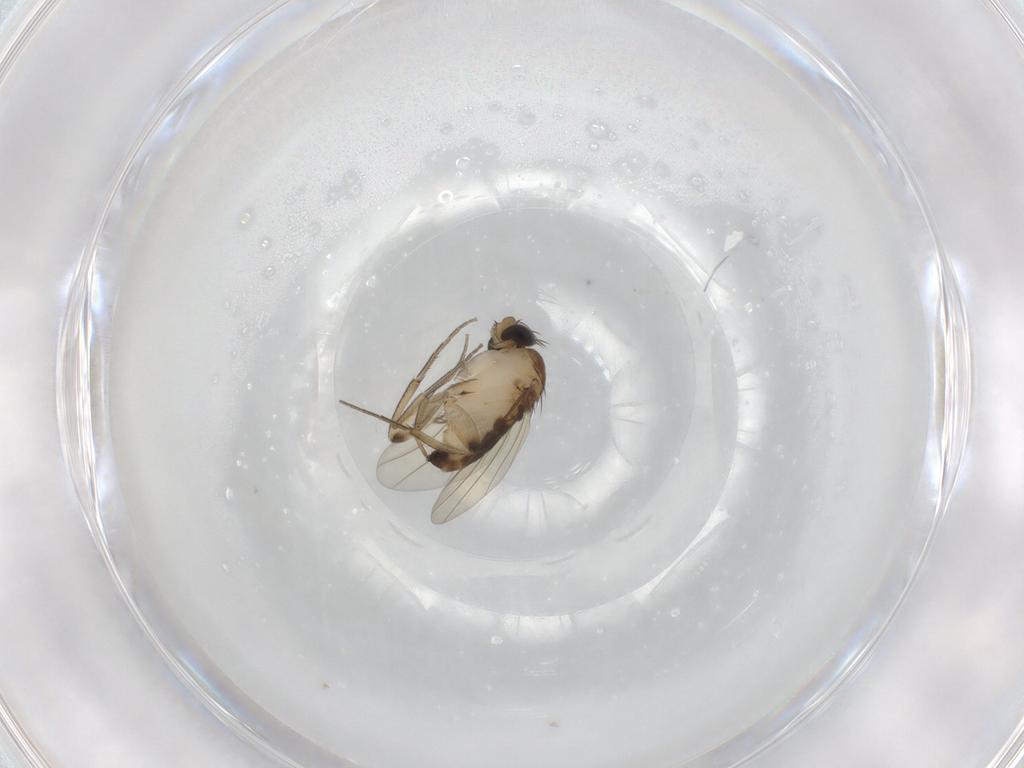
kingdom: Animalia
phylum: Arthropoda
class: Insecta
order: Diptera
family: Phoridae
